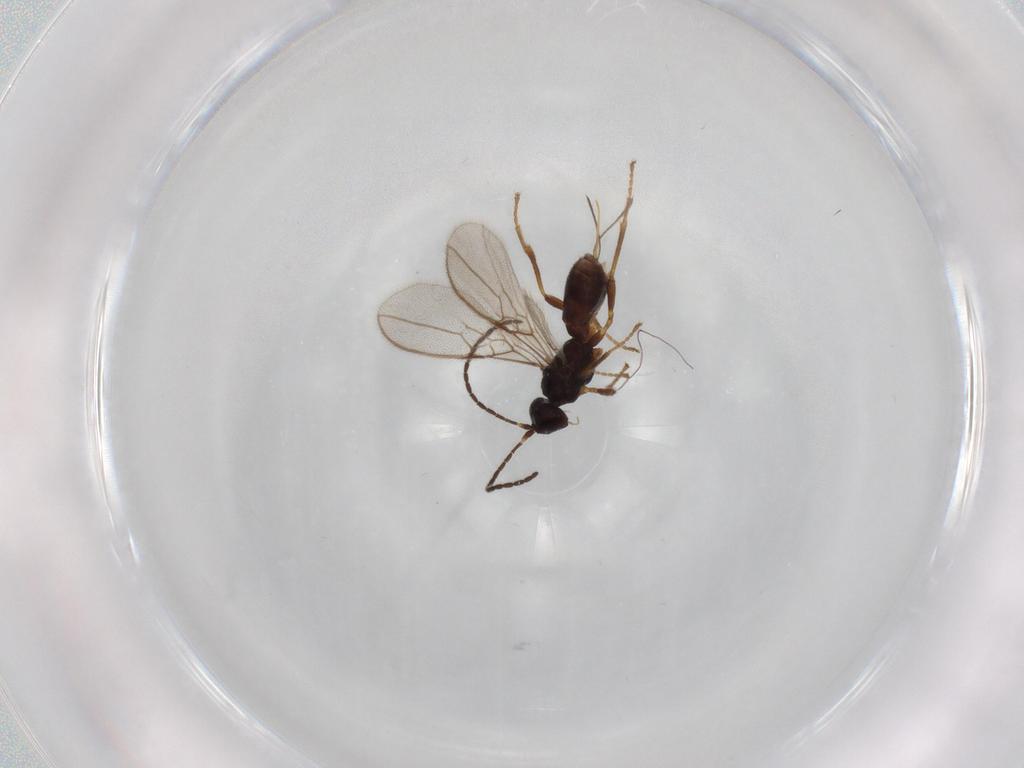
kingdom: Animalia
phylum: Arthropoda
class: Insecta
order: Hymenoptera
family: Braconidae
